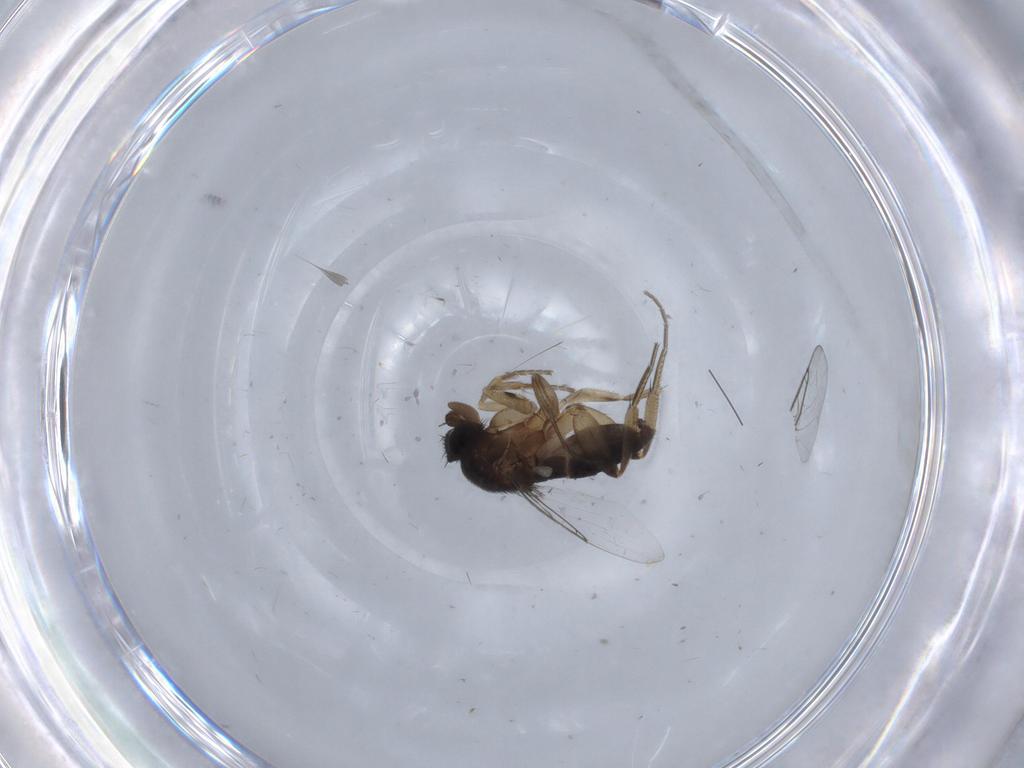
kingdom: Animalia
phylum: Arthropoda
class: Insecta
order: Diptera
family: Phoridae
